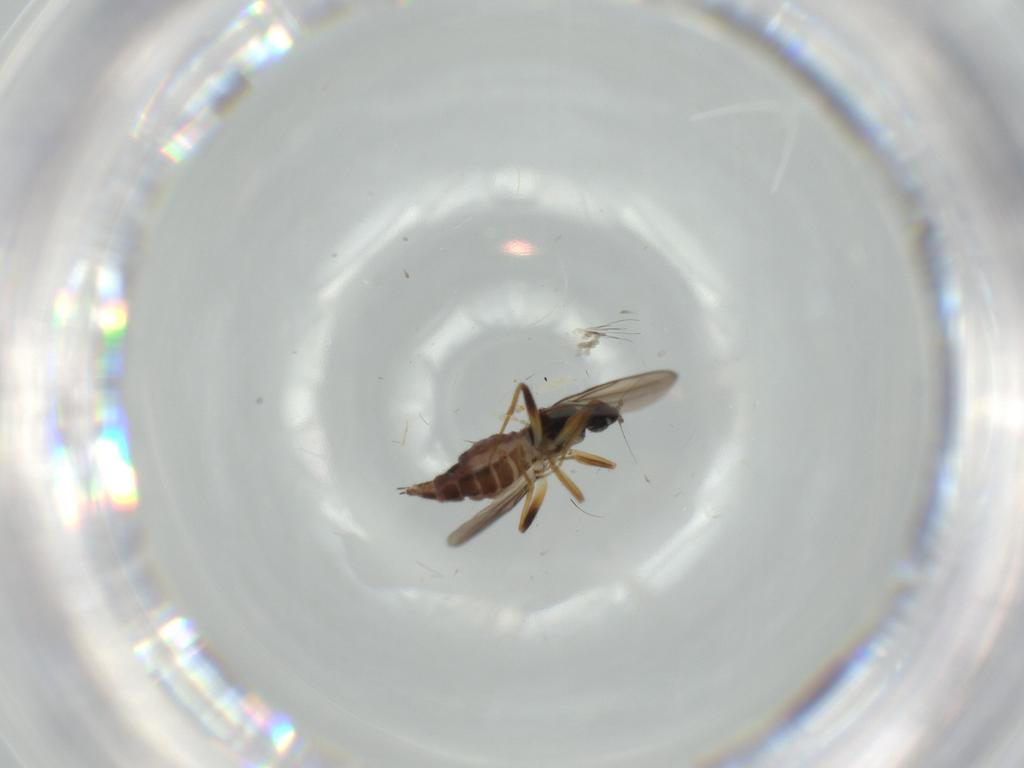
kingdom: Animalia
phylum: Arthropoda
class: Insecta
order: Diptera
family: Hybotidae
